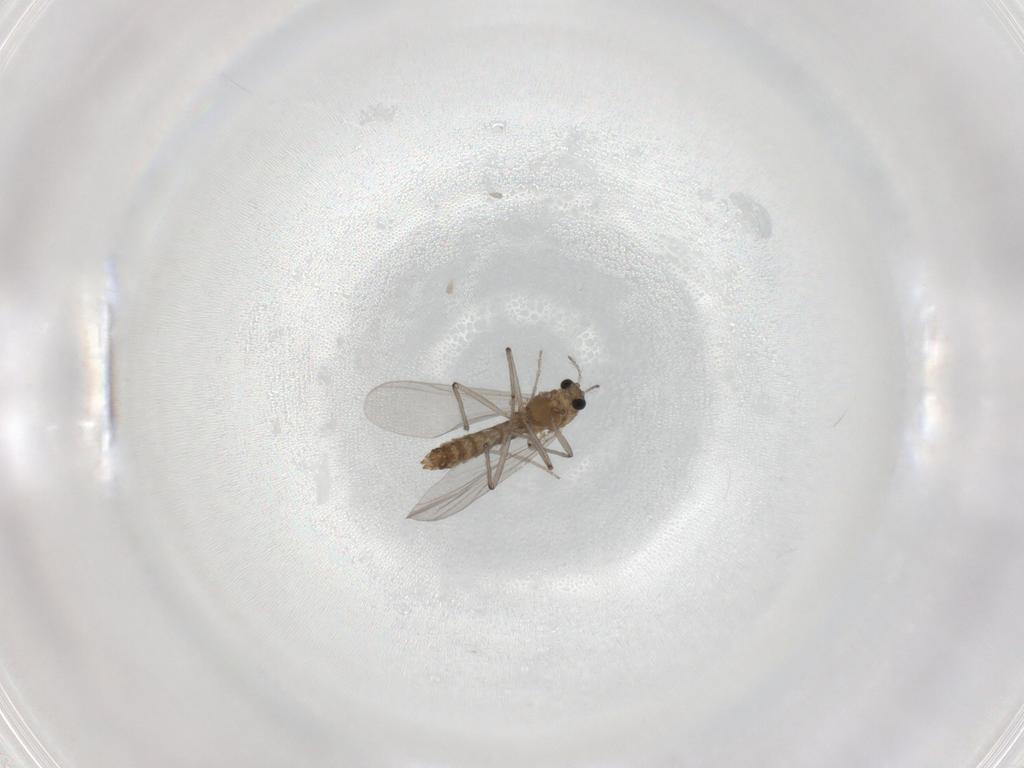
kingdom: Animalia
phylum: Arthropoda
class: Insecta
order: Diptera
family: Chironomidae
